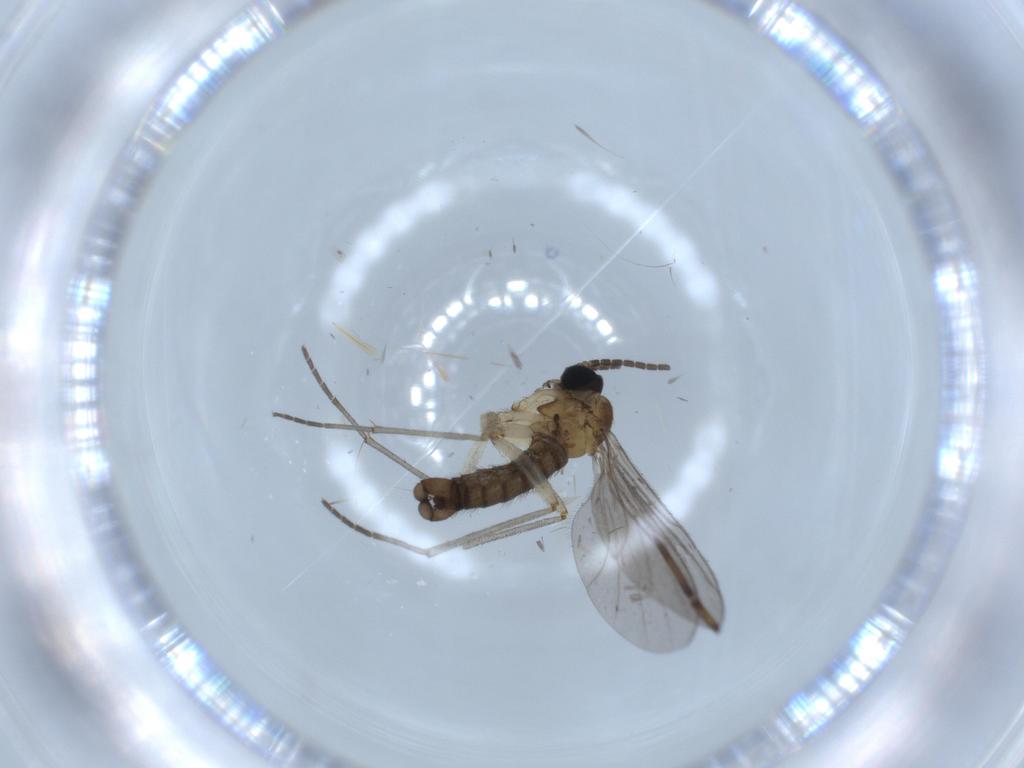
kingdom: Animalia
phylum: Arthropoda
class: Insecta
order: Diptera
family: Sciaridae
